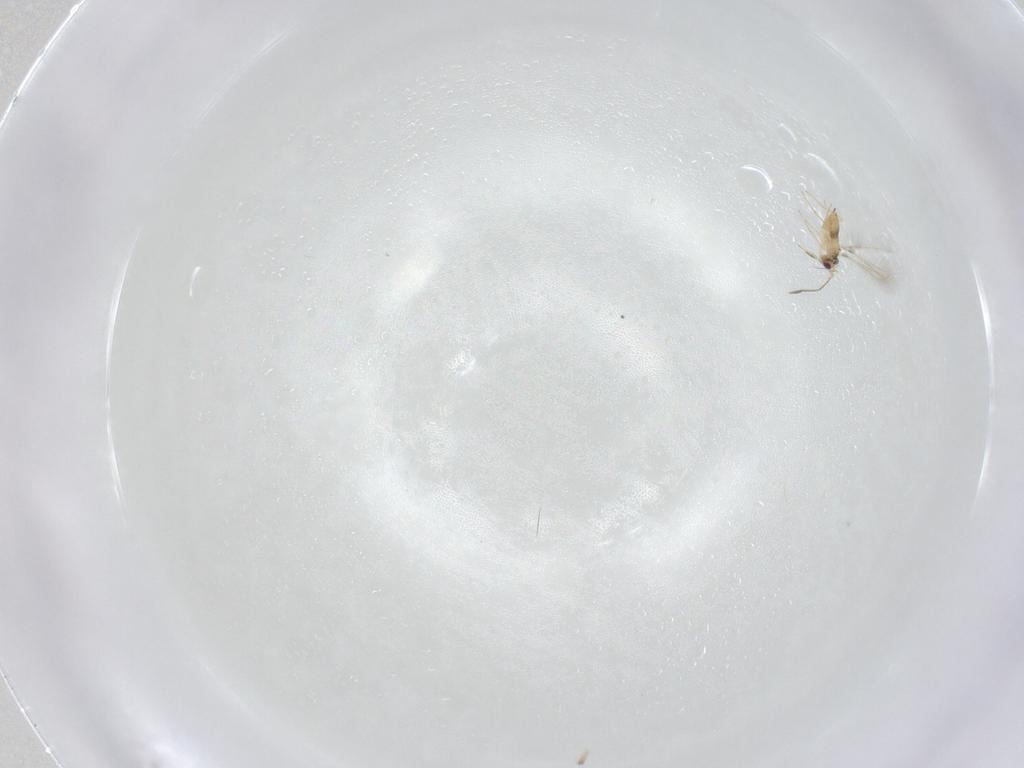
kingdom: Animalia
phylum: Arthropoda
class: Insecta
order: Hymenoptera
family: Mymaridae
